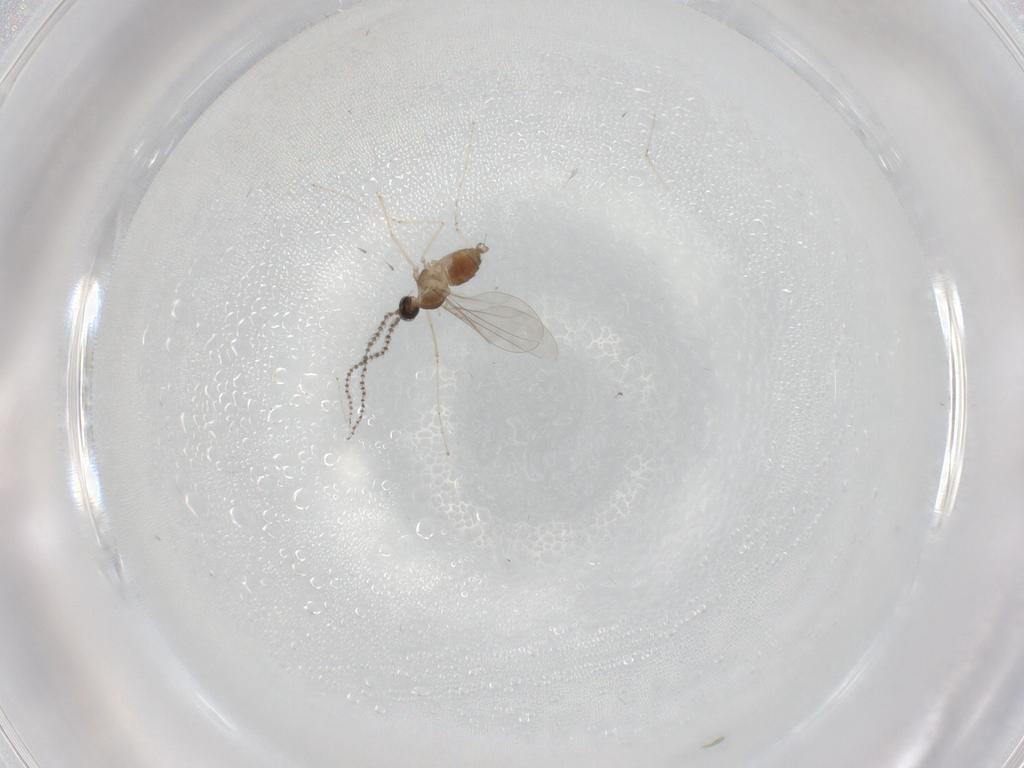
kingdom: Animalia
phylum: Arthropoda
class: Insecta
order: Diptera
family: Cecidomyiidae
